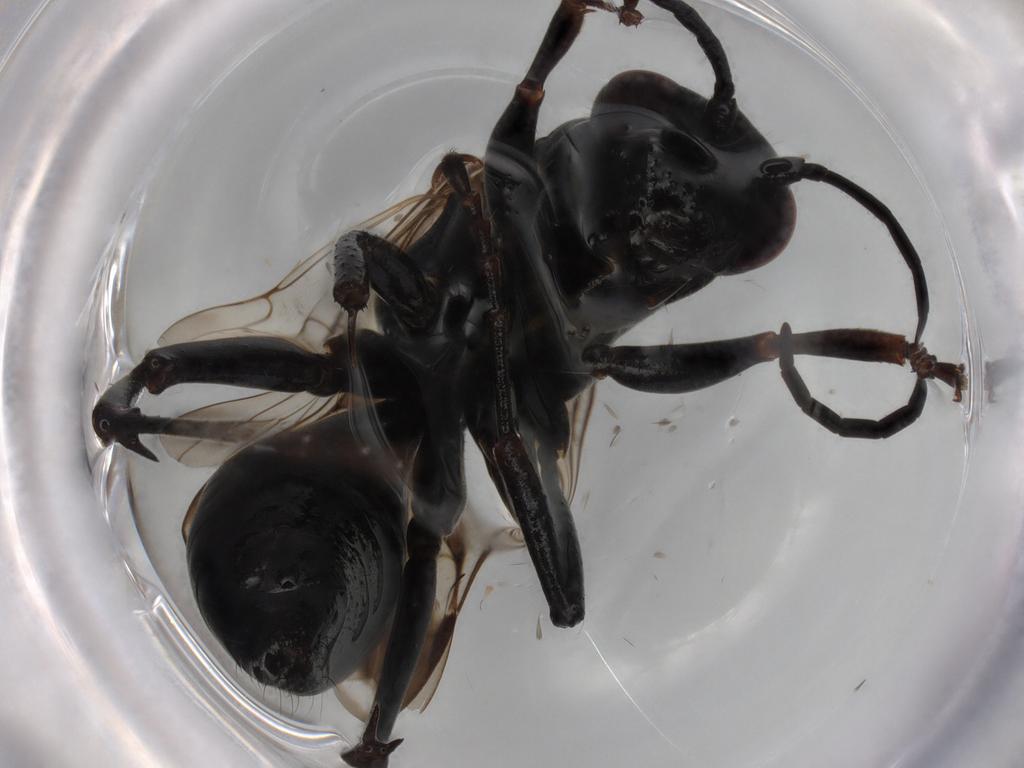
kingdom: Animalia
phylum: Arthropoda
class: Insecta
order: Hymenoptera
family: Pompilidae
